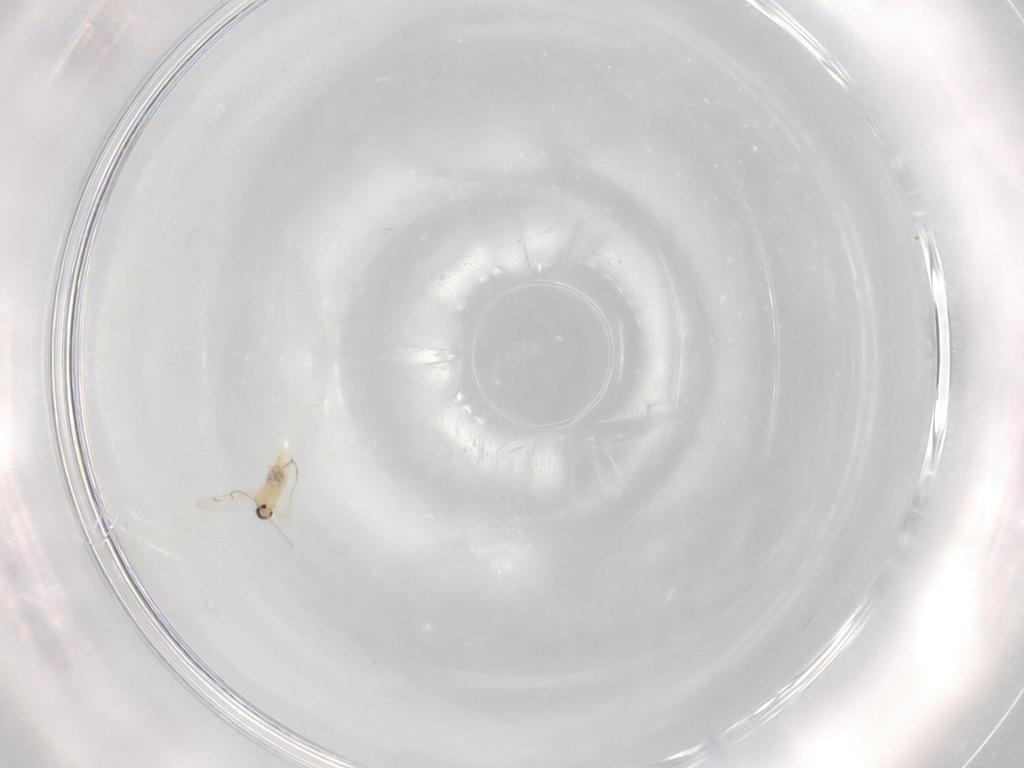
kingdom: Animalia
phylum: Arthropoda
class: Insecta
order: Diptera
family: Cecidomyiidae
